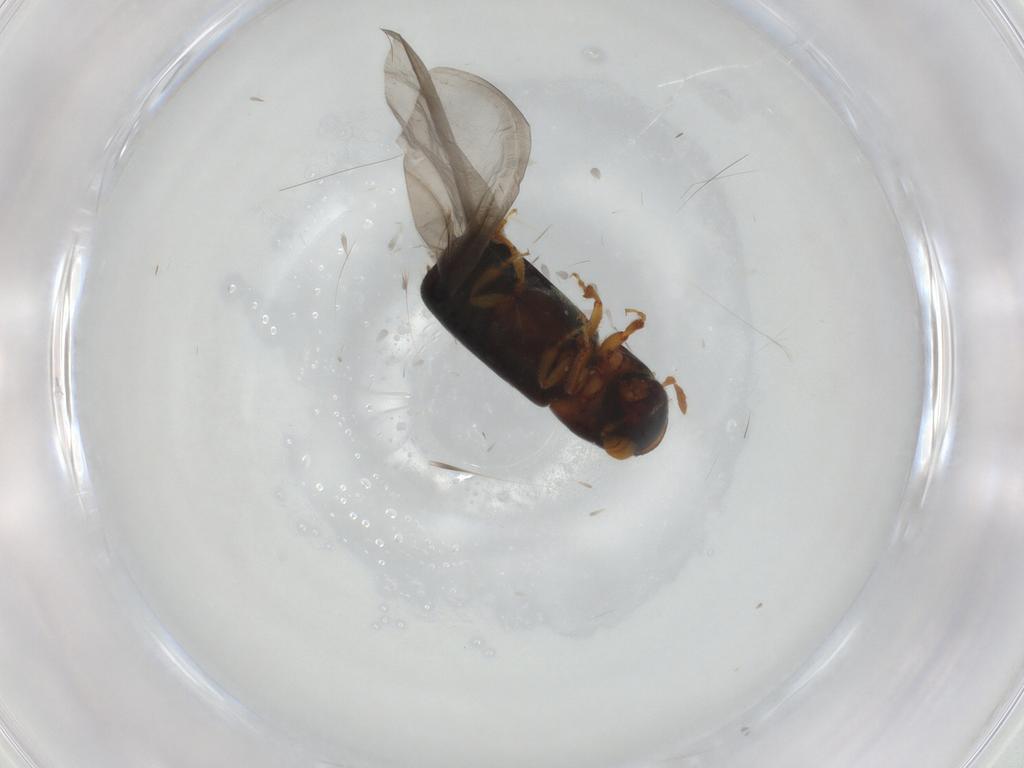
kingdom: Animalia
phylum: Arthropoda
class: Insecta
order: Coleoptera
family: Curculionidae
